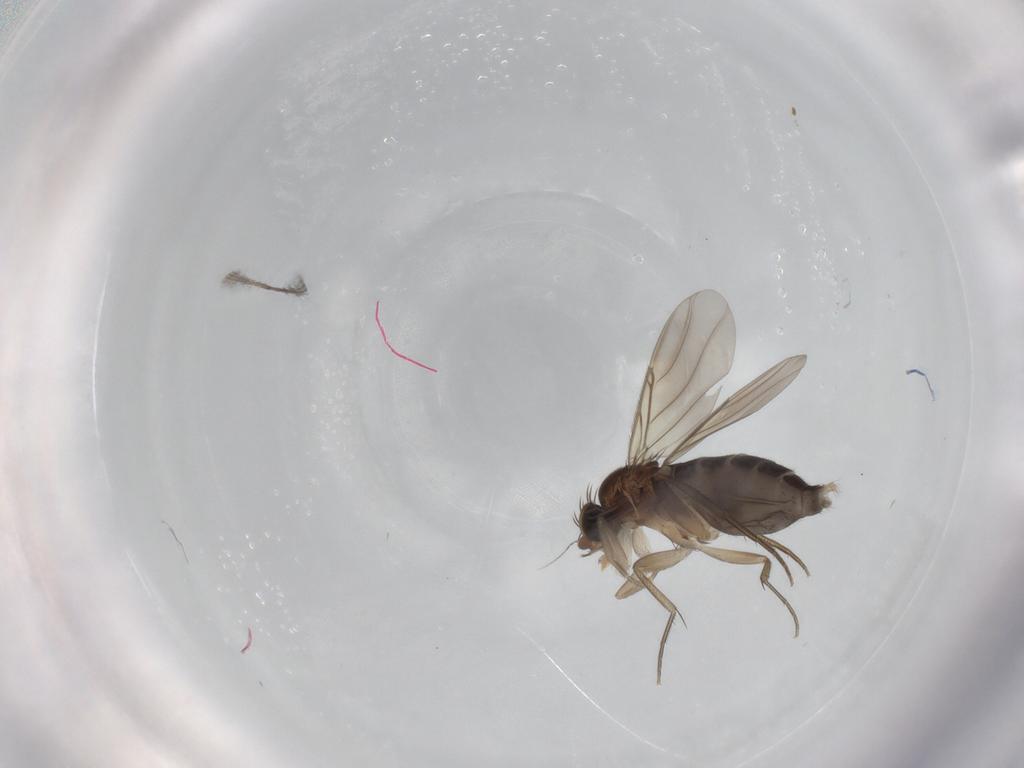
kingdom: Animalia
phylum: Arthropoda
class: Insecta
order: Diptera
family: Phoridae
